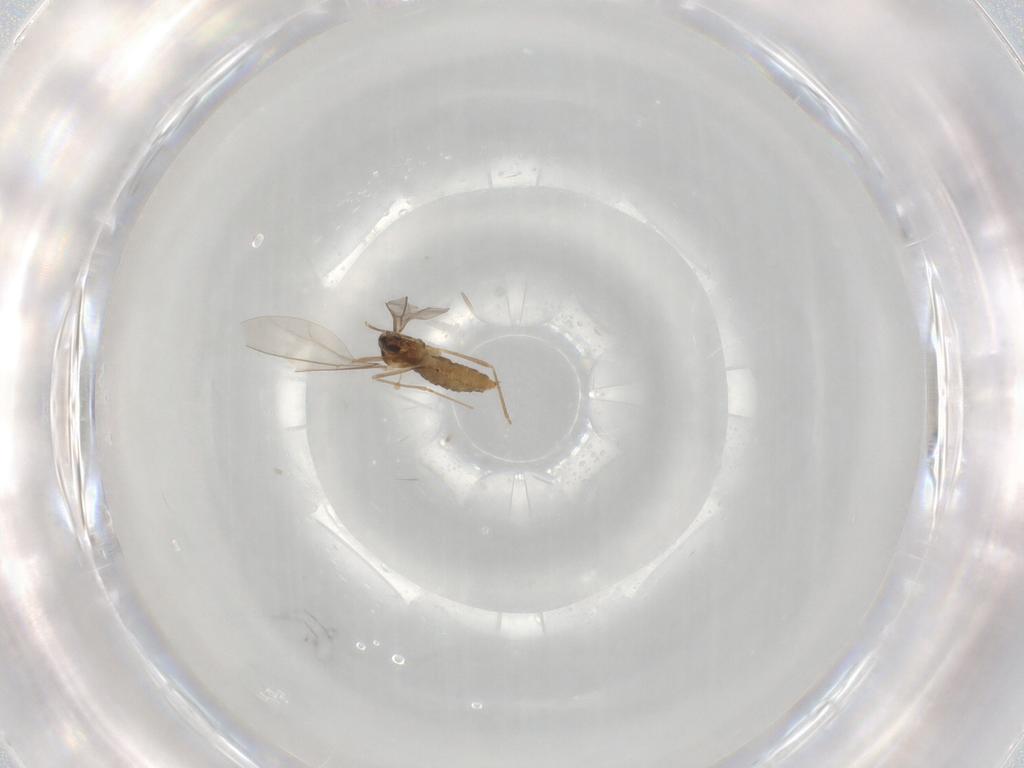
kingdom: Animalia
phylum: Arthropoda
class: Insecta
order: Diptera
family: Cecidomyiidae
